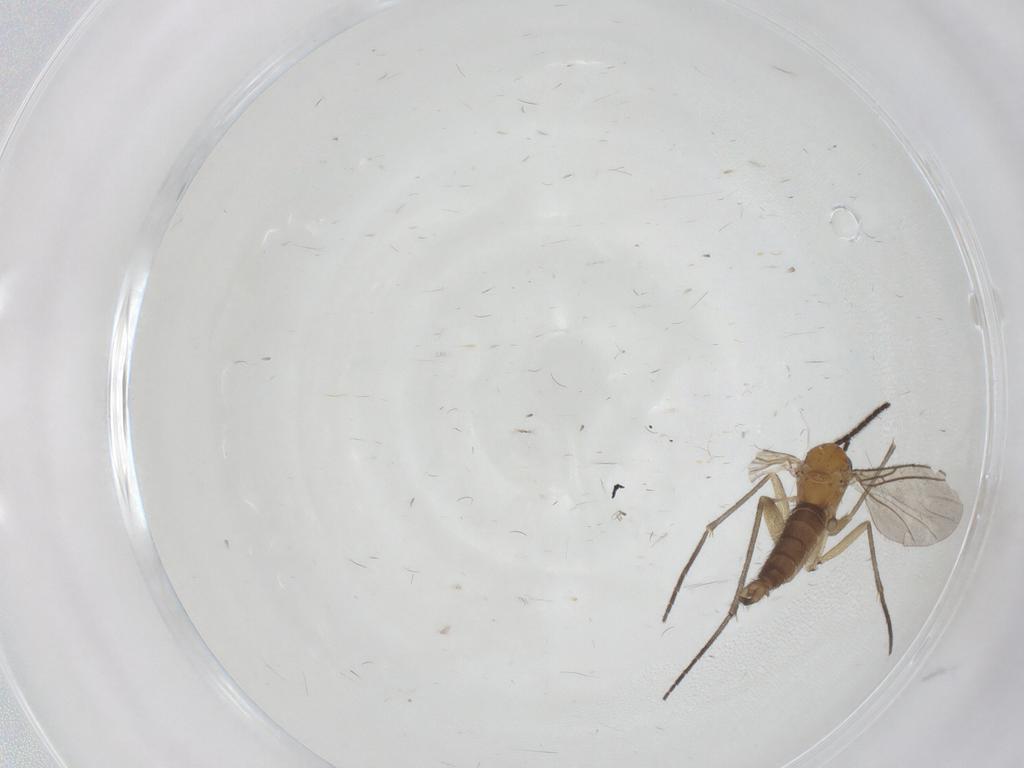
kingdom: Animalia
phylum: Arthropoda
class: Insecta
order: Diptera
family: Sciaridae
